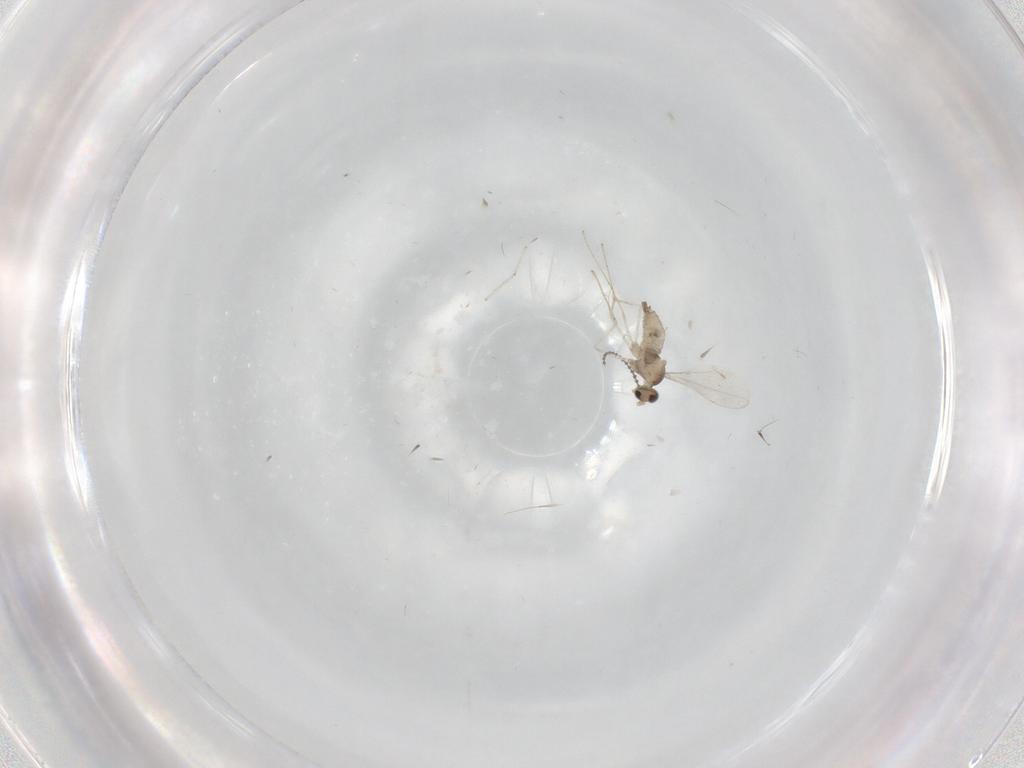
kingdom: Animalia
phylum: Arthropoda
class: Insecta
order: Diptera
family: Cecidomyiidae
